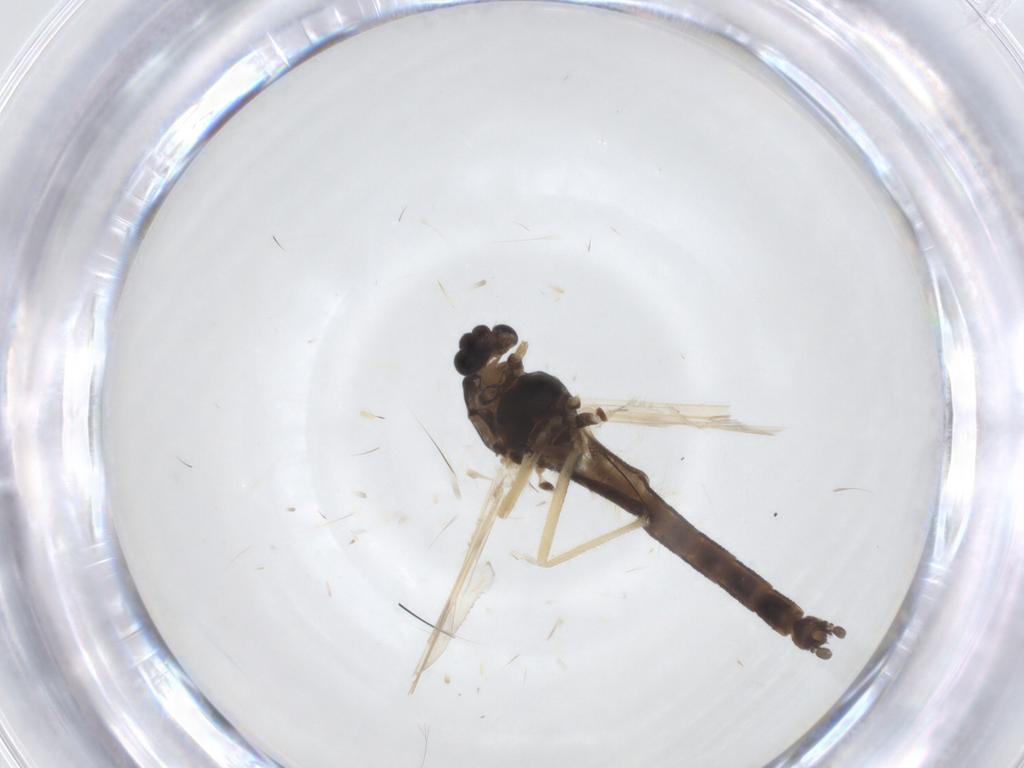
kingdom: Animalia
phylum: Arthropoda
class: Insecta
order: Diptera
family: Chironomidae
